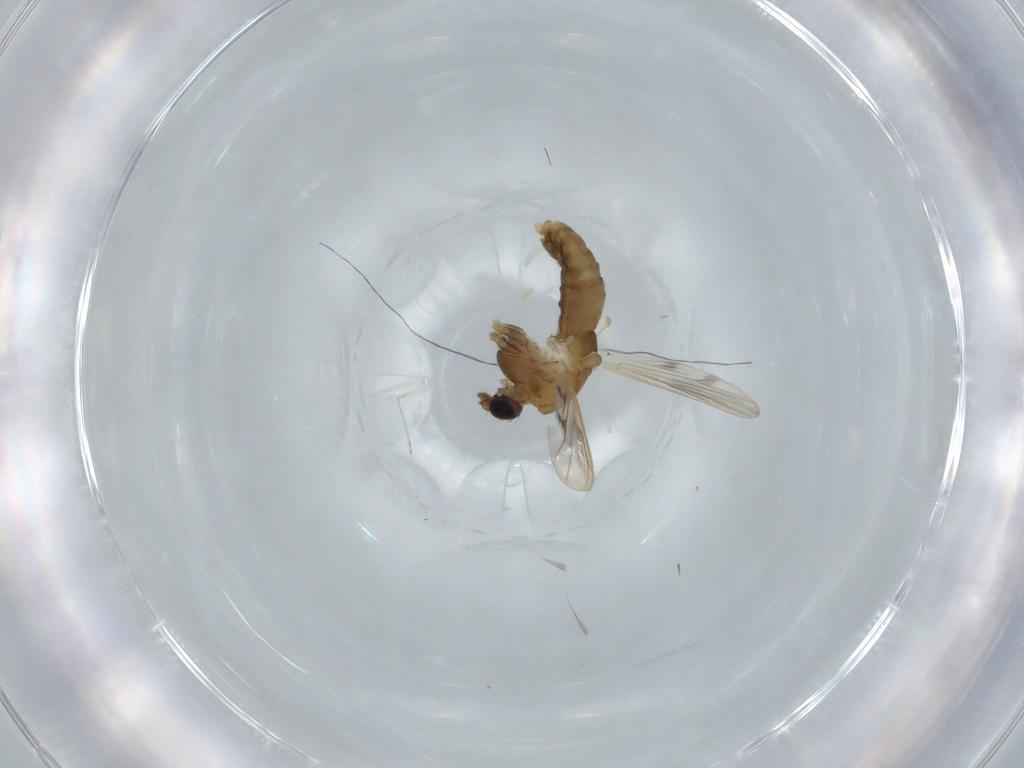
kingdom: Animalia
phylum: Arthropoda
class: Insecta
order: Diptera
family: Chironomidae
